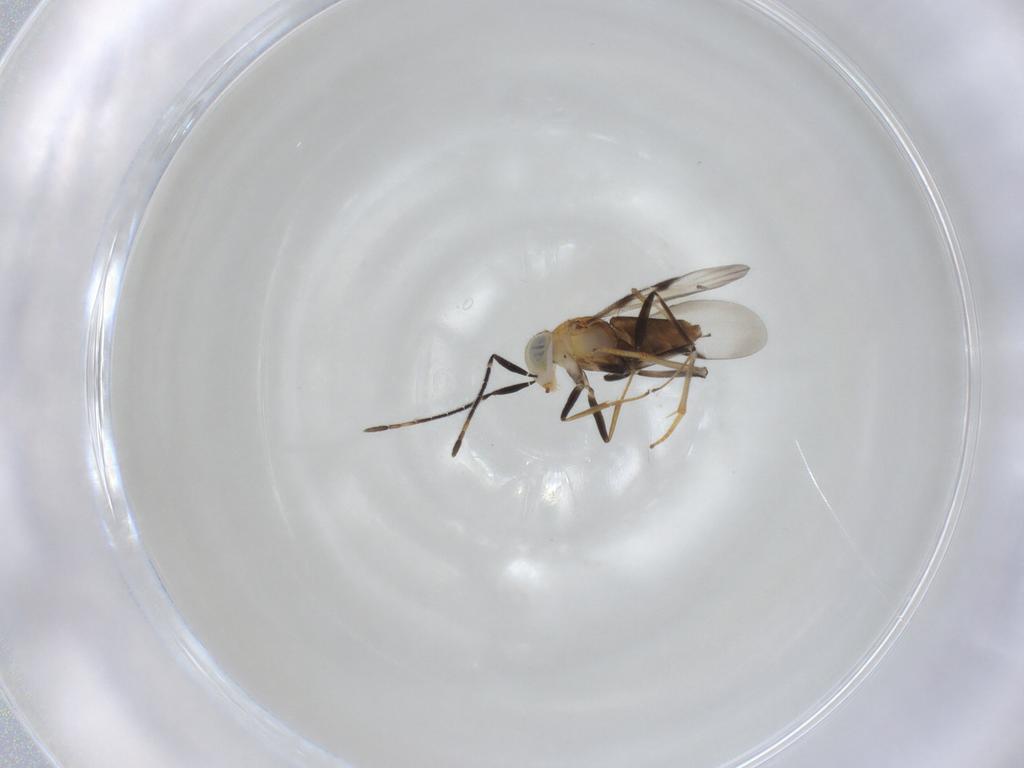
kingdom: Animalia
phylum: Arthropoda
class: Insecta
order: Hymenoptera
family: Encyrtidae
